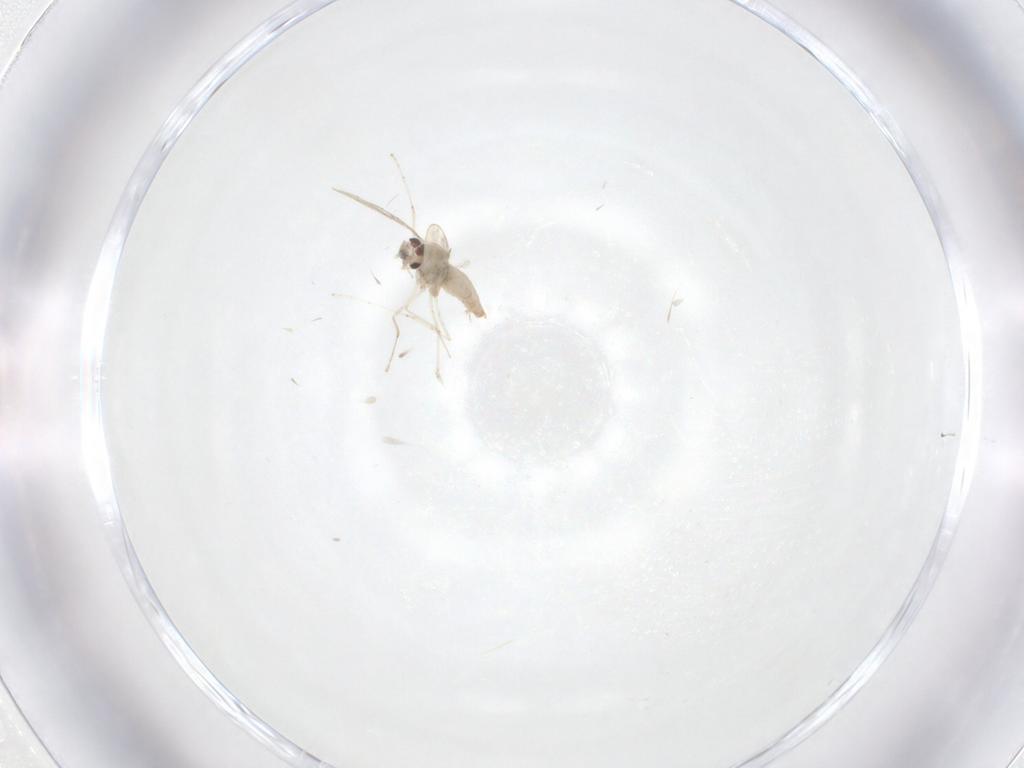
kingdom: Animalia
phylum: Arthropoda
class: Insecta
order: Diptera
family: Cecidomyiidae
